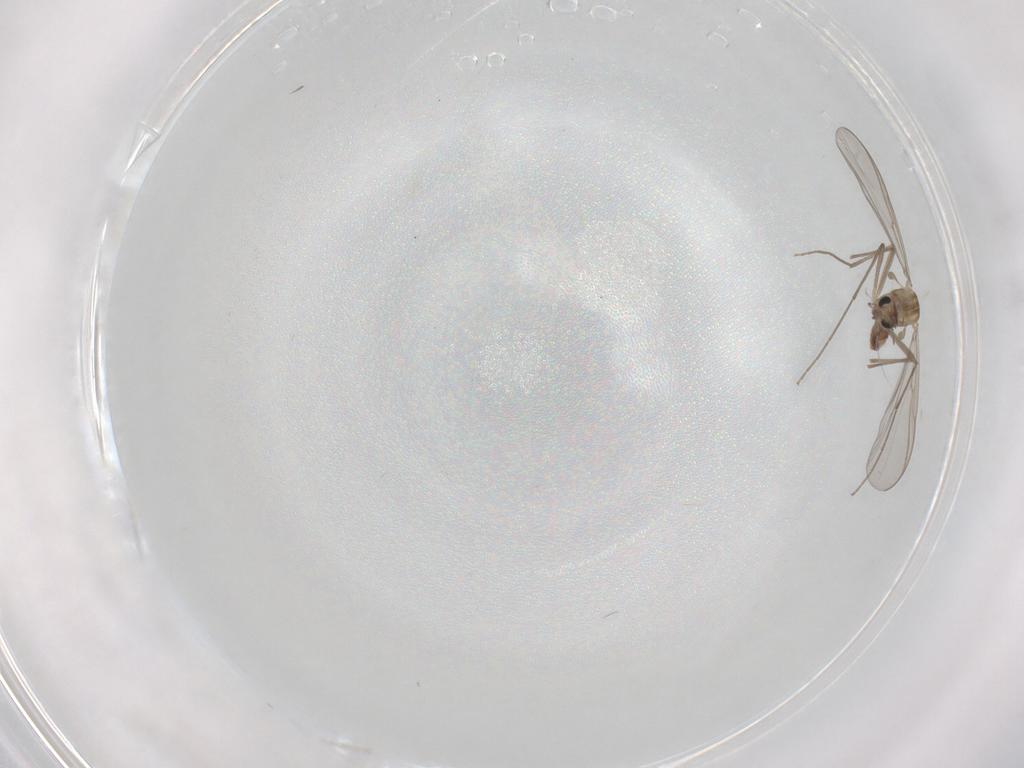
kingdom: Animalia
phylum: Arthropoda
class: Insecta
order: Diptera
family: Chironomidae
